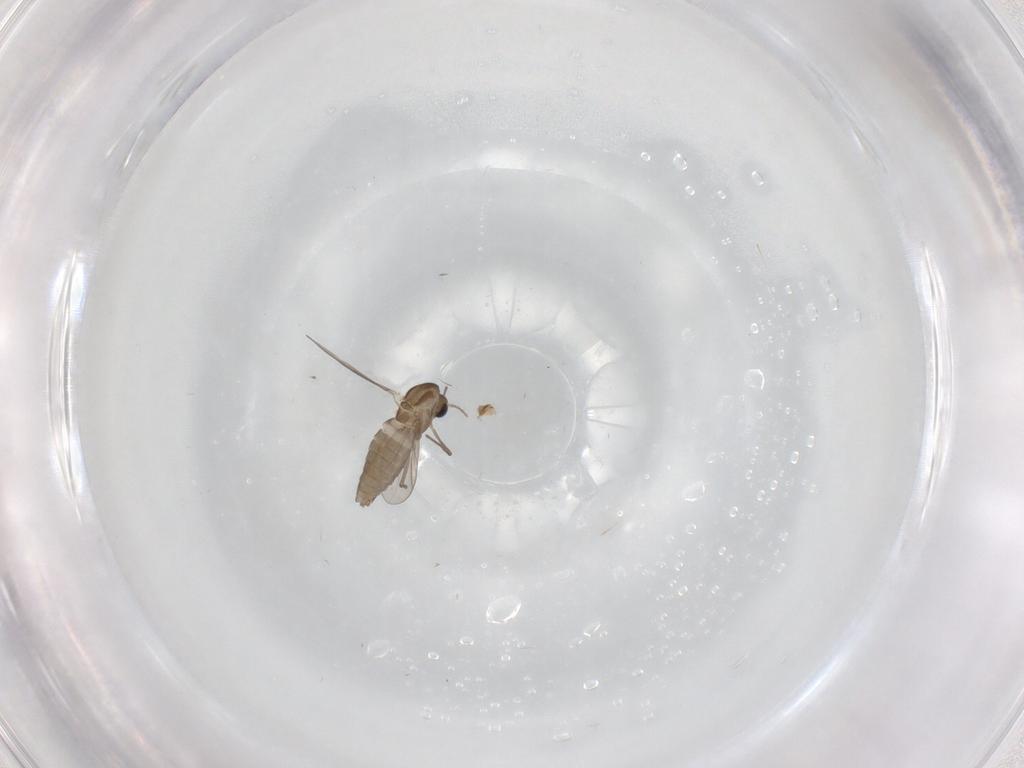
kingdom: Animalia
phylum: Arthropoda
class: Insecta
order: Diptera
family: Chironomidae
